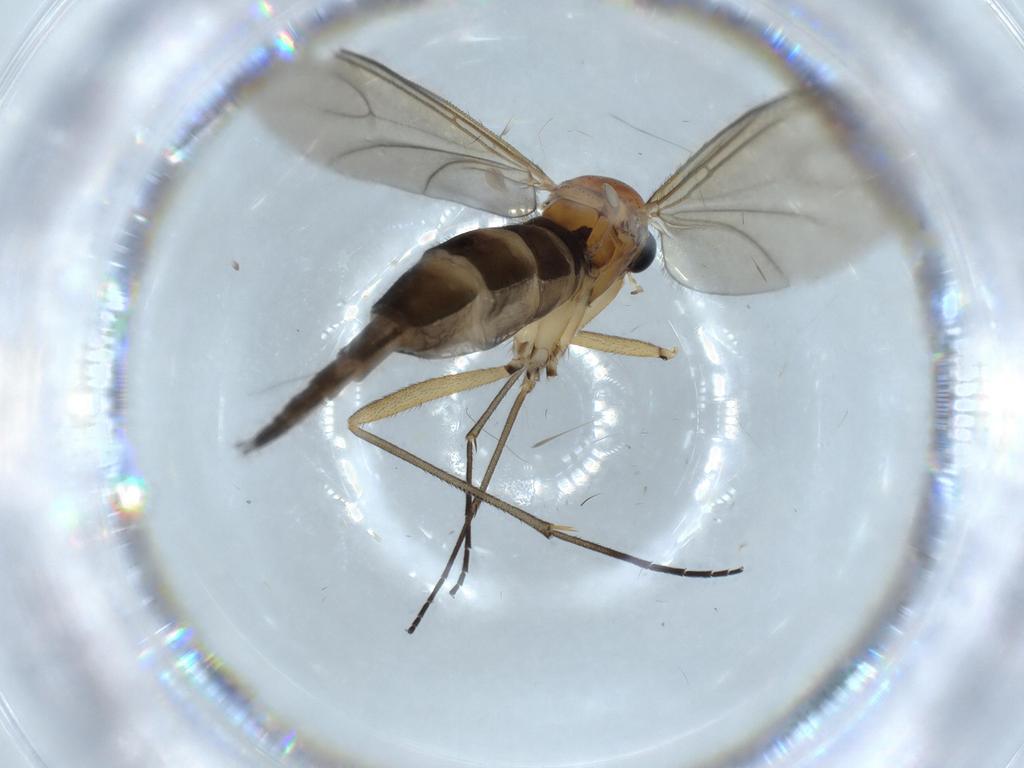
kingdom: Animalia
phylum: Arthropoda
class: Insecta
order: Diptera
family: Sciaridae
